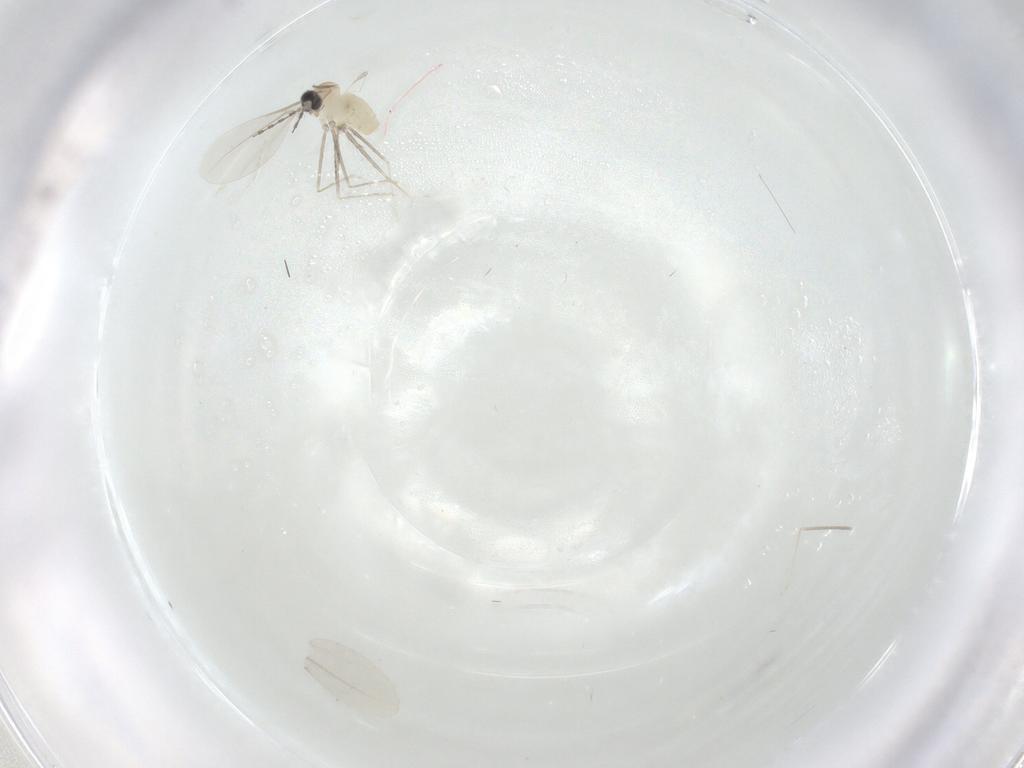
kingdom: Animalia
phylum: Arthropoda
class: Insecta
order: Diptera
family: Cecidomyiidae
